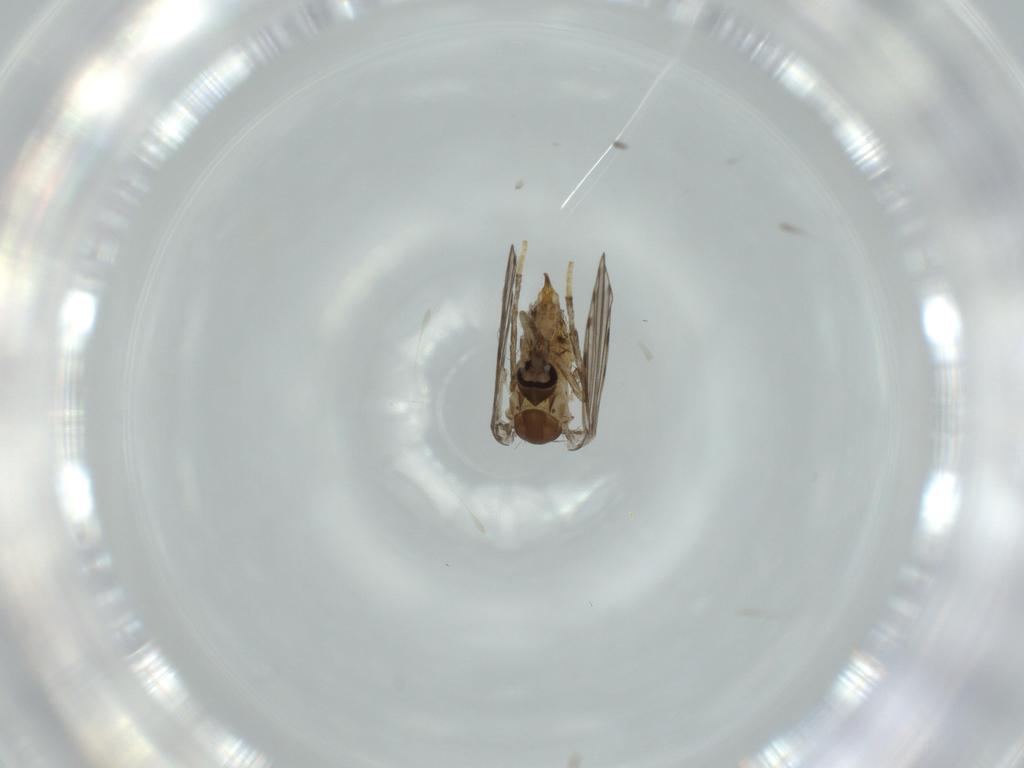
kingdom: Animalia
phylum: Arthropoda
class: Insecta
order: Diptera
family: Psychodidae
